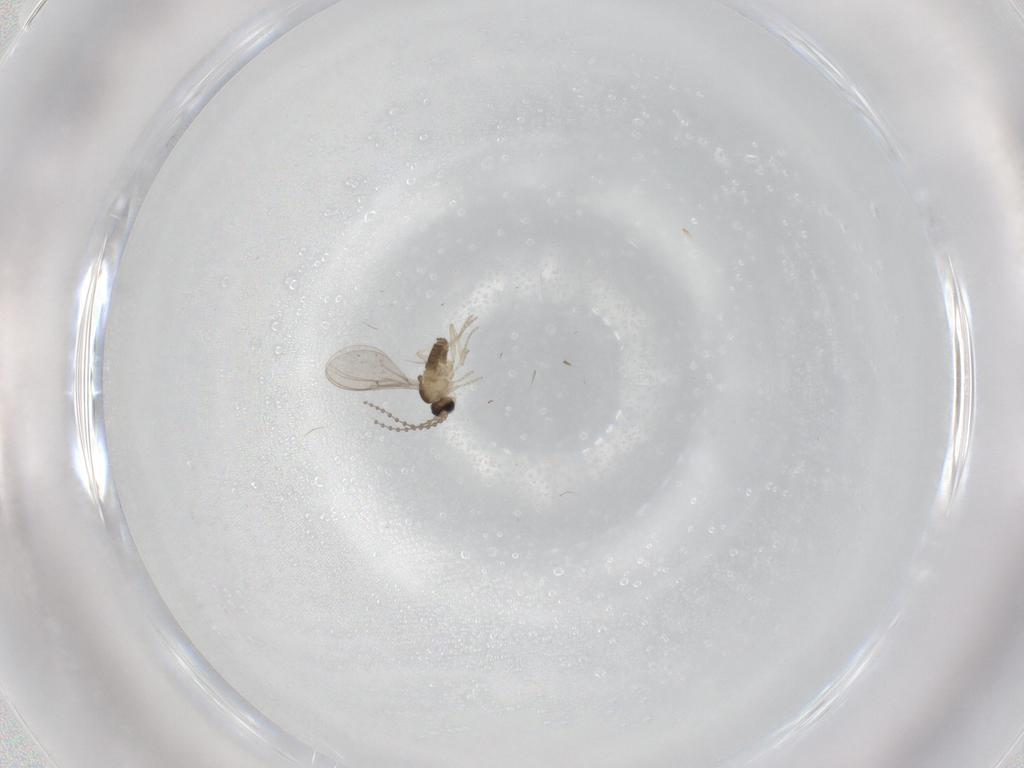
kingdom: Animalia
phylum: Arthropoda
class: Insecta
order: Diptera
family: Cecidomyiidae
